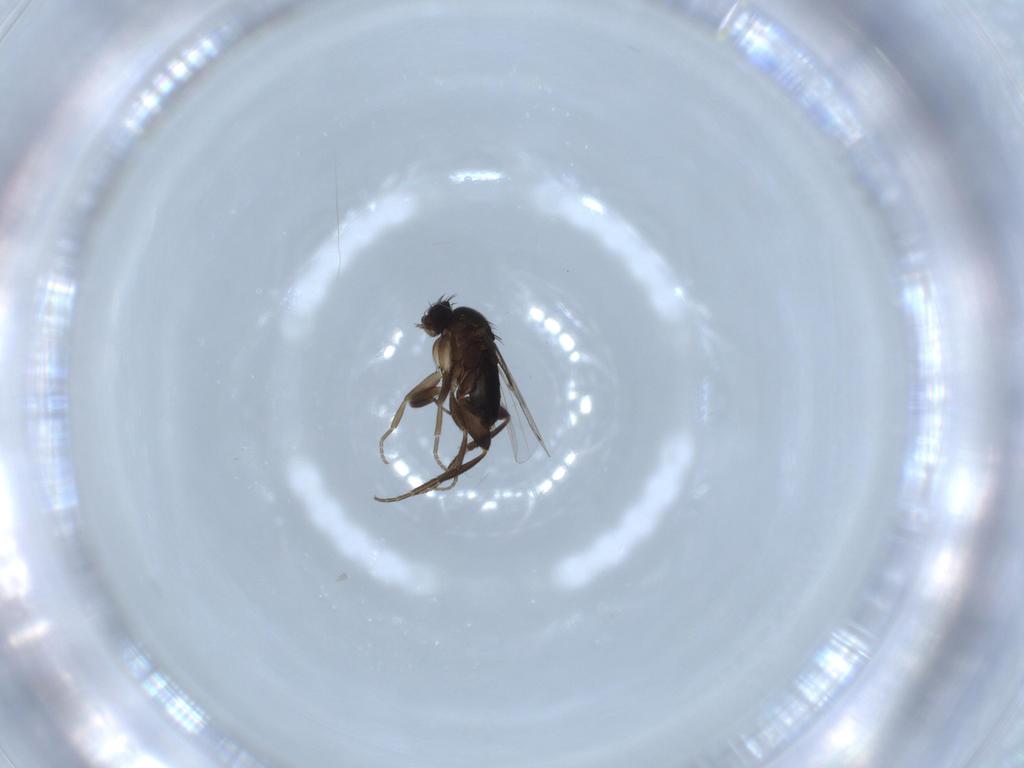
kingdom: Animalia
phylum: Arthropoda
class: Insecta
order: Diptera
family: Phoridae
